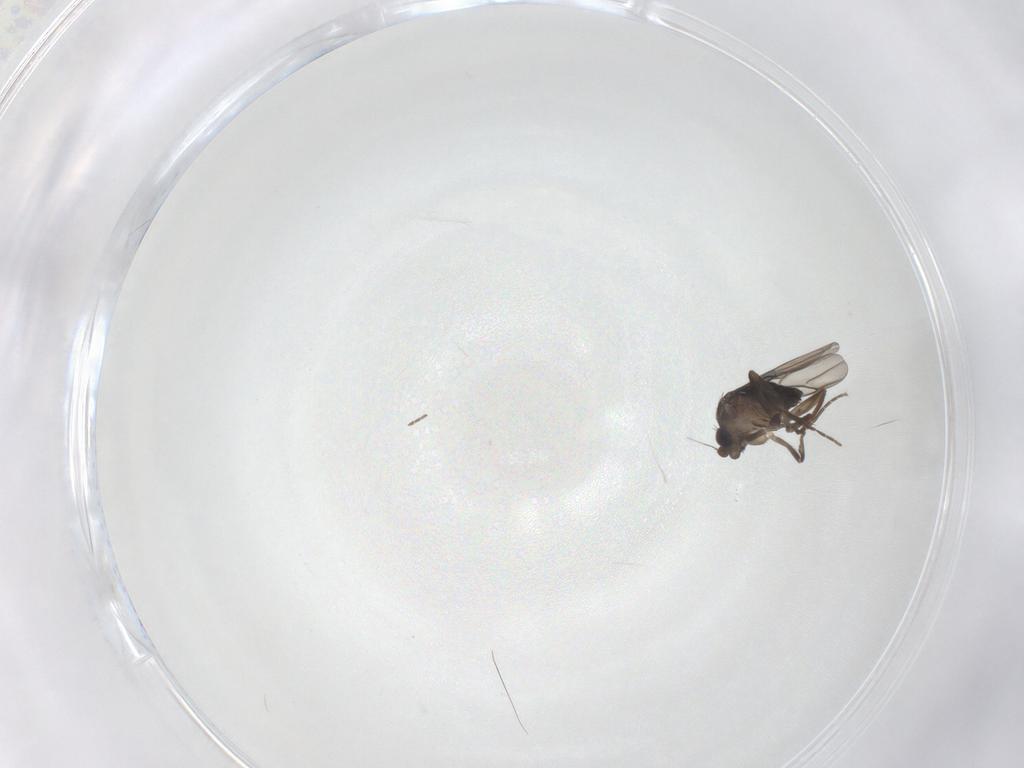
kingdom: Animalia
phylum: Arthropoda
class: Insecta
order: Diptera
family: Phoridae
